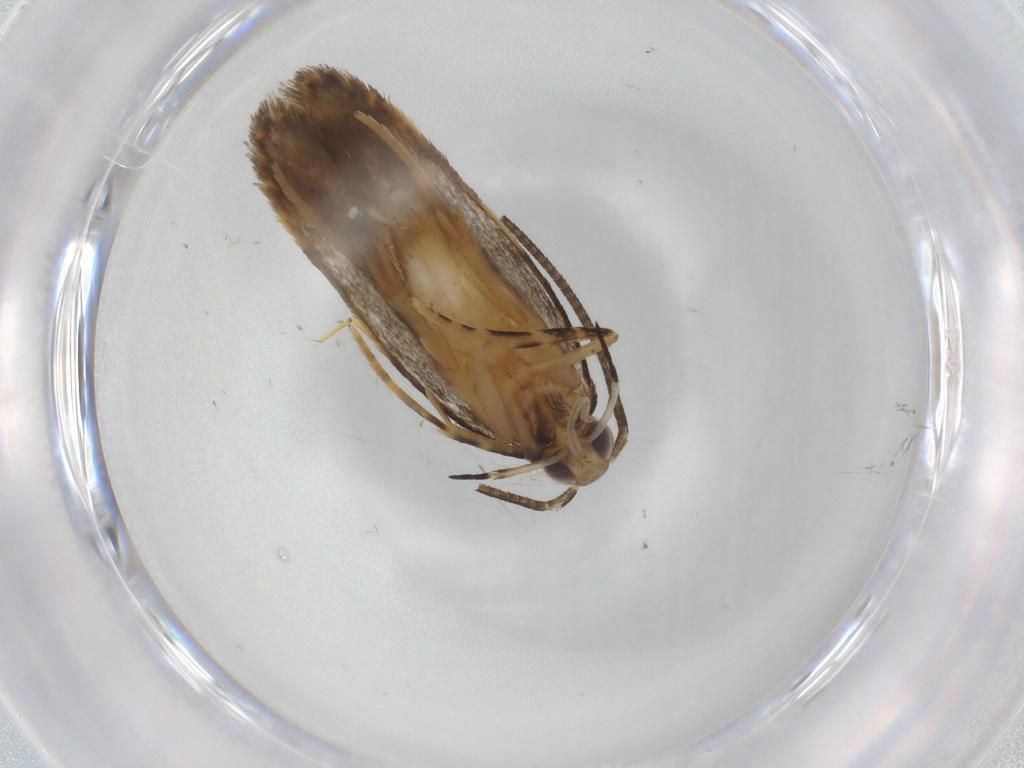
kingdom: Animalia
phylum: Arthropoda
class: Insecta
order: Lepidoptera
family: Autostichidae
